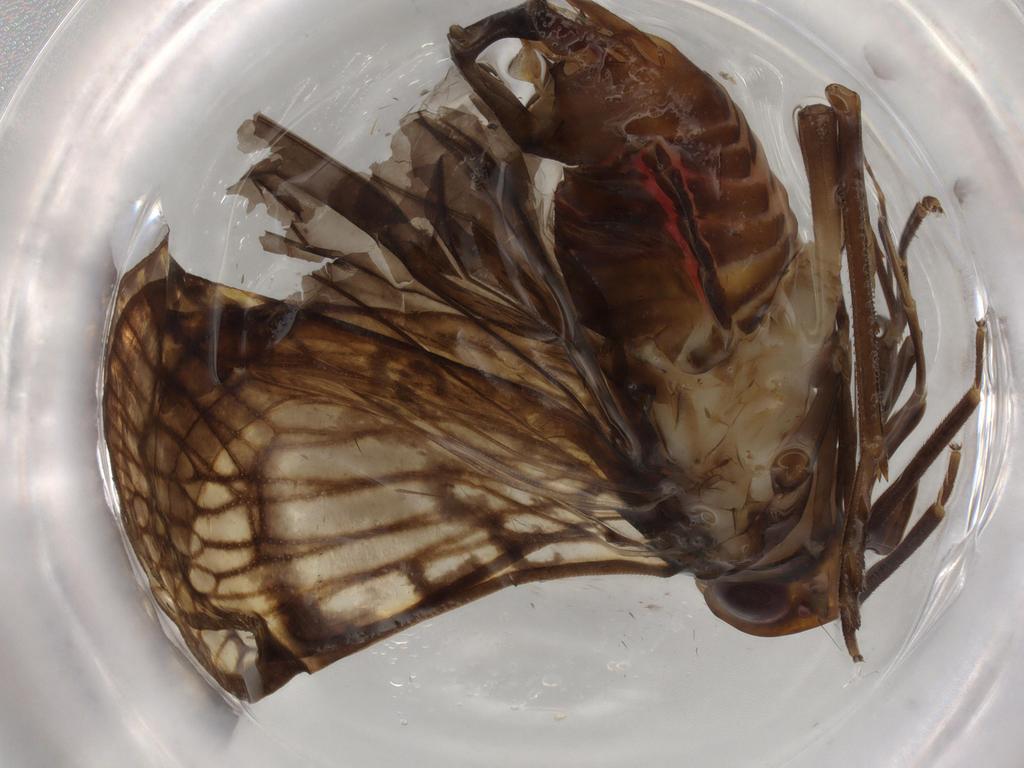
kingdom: Animalia
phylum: Arthropoda
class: Insecta
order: Hemiptera
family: Cixiidae
